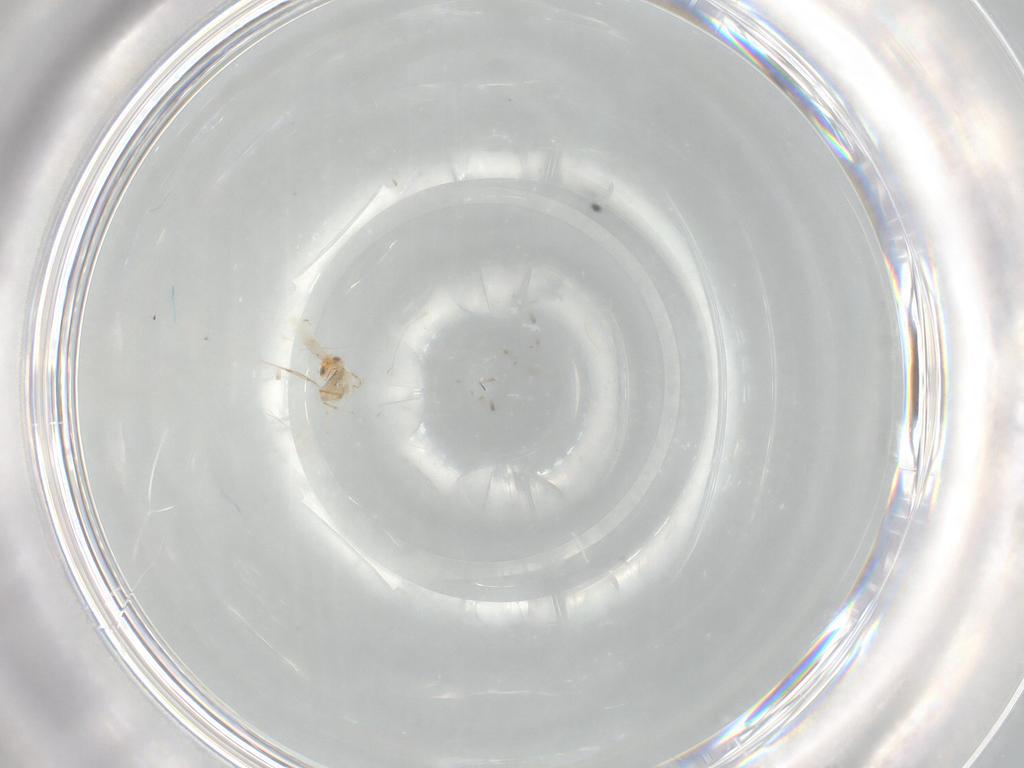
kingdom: Animalia
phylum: Arthropoda
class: Insecta
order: Hymenoptera
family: Aphelinidae
